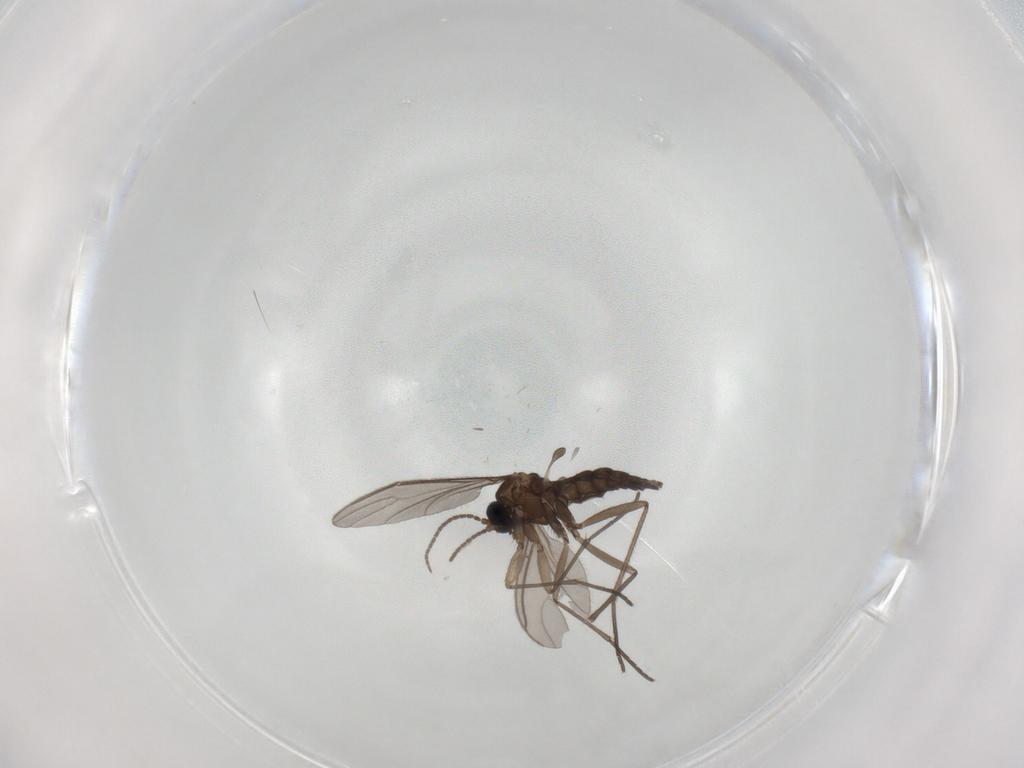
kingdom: Animalia
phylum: Arthropoda
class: Insecta
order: Diptera
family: Sciaridae
